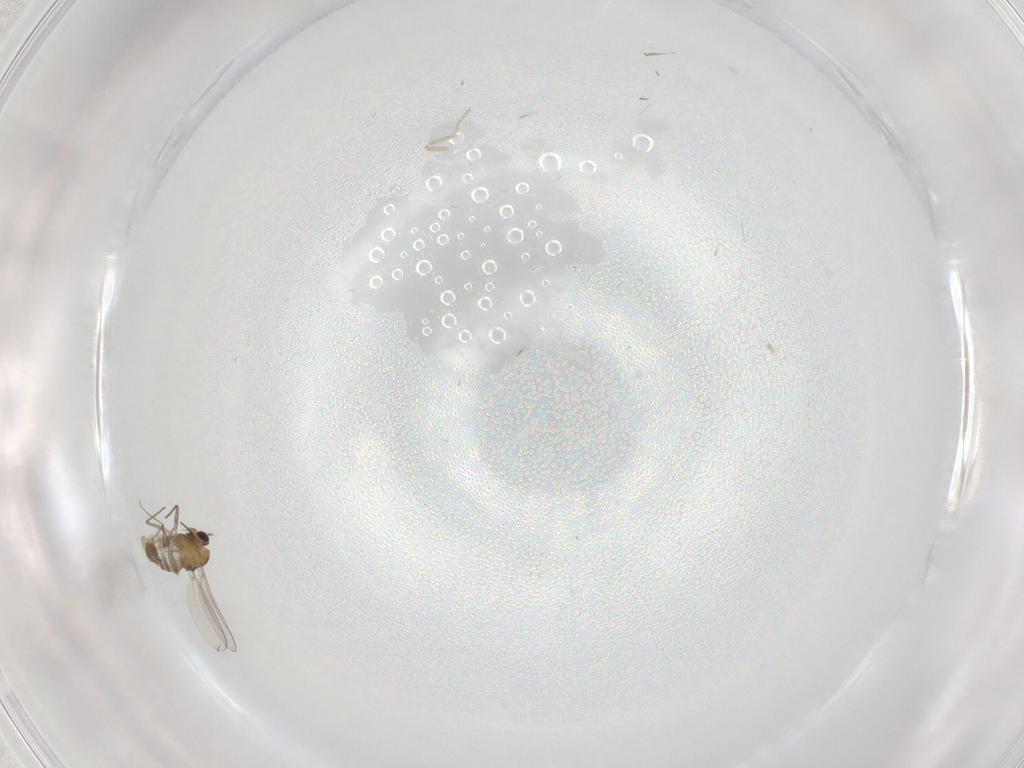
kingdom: Animalia
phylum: Arthropoda
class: Insecta
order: Diptera
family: Chironomidae
